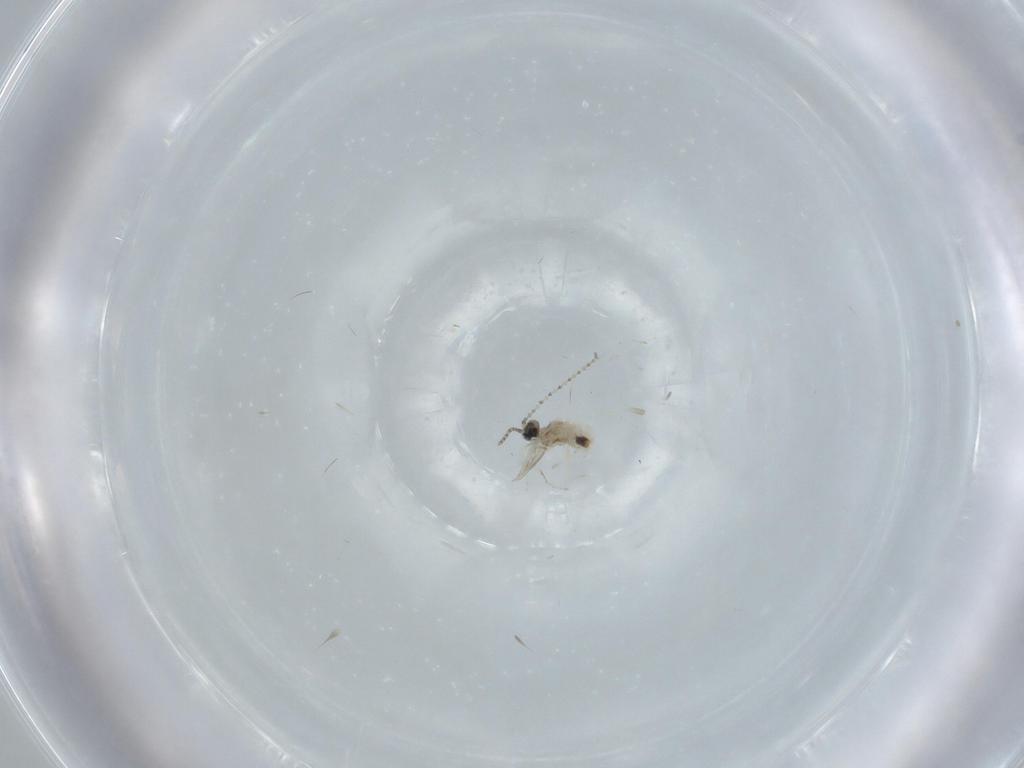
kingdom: Animalia
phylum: Arthropoda
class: Insecta
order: Diptera
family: Cecidomyiidae
